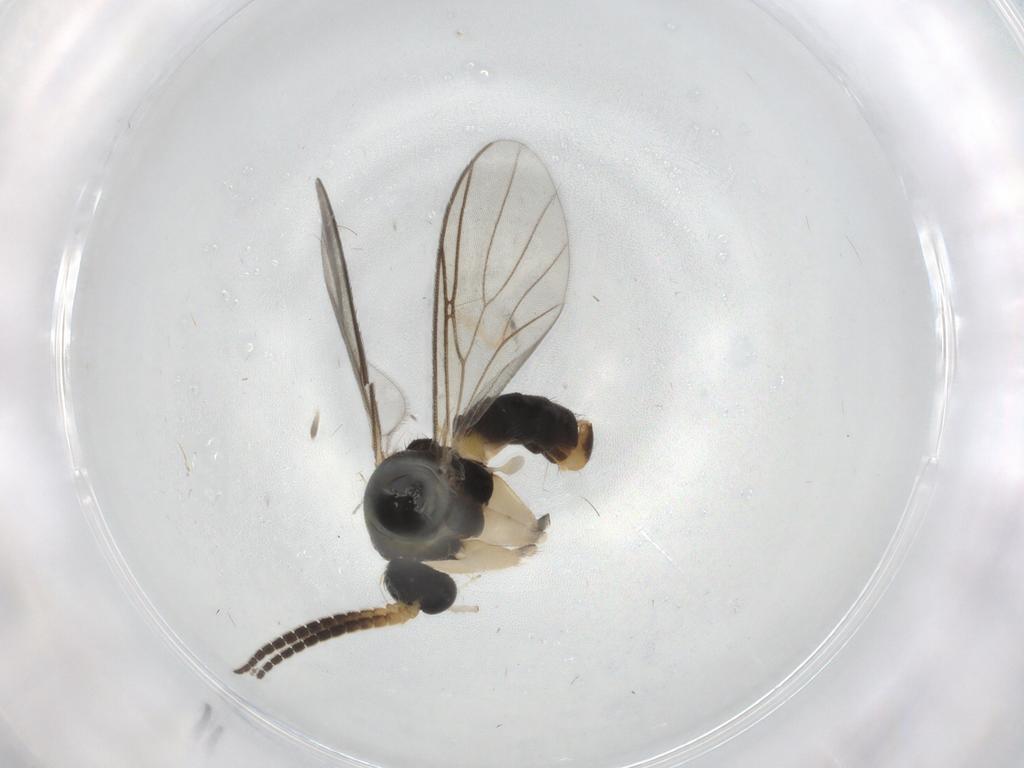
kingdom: Animalia
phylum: Arthropoda
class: Insecta
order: Diptera
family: Mycetophilidae
